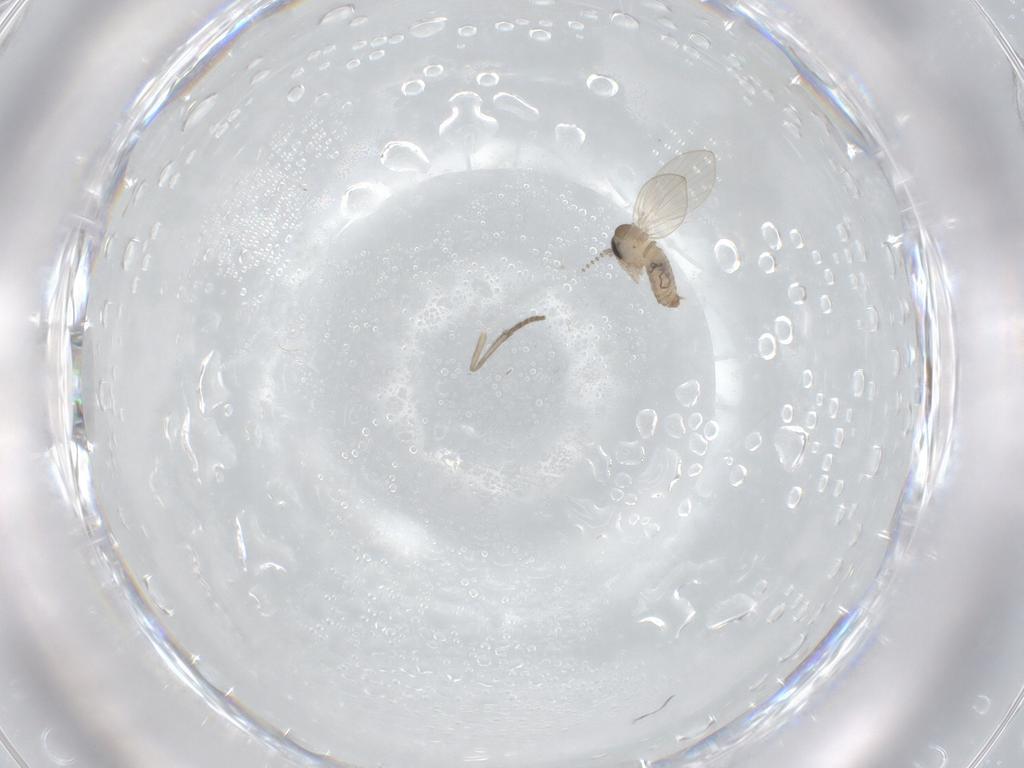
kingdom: Animalia
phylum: Arthropoda
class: Insecta
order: Diptera
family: Psychodidae
